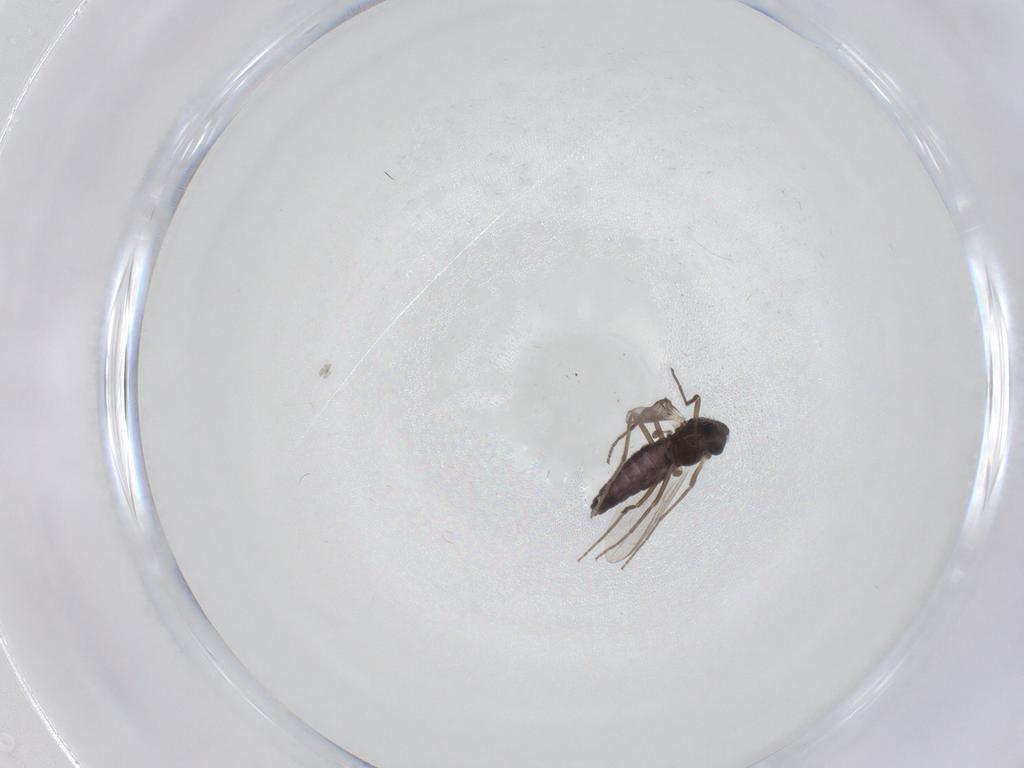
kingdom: Animalia
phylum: Arthropoda
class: Insecta
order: Diptera
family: Chironomidae
